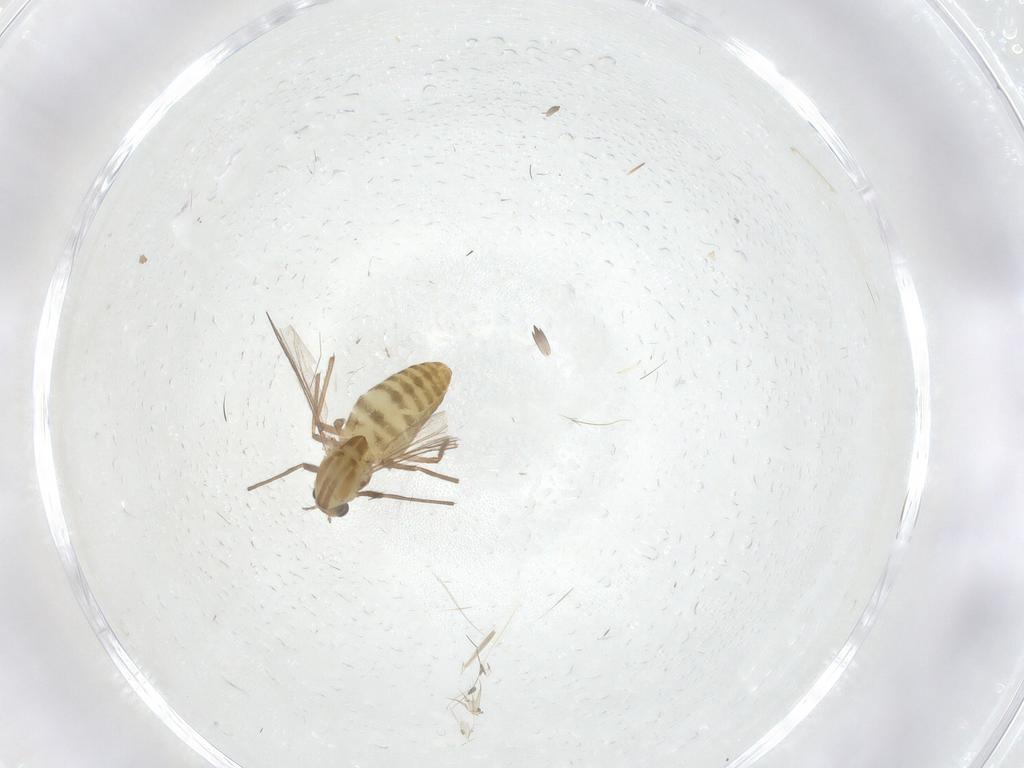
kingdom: Animalia
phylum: Arthropoda
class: Insecta
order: Diptera
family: Chironomidae
